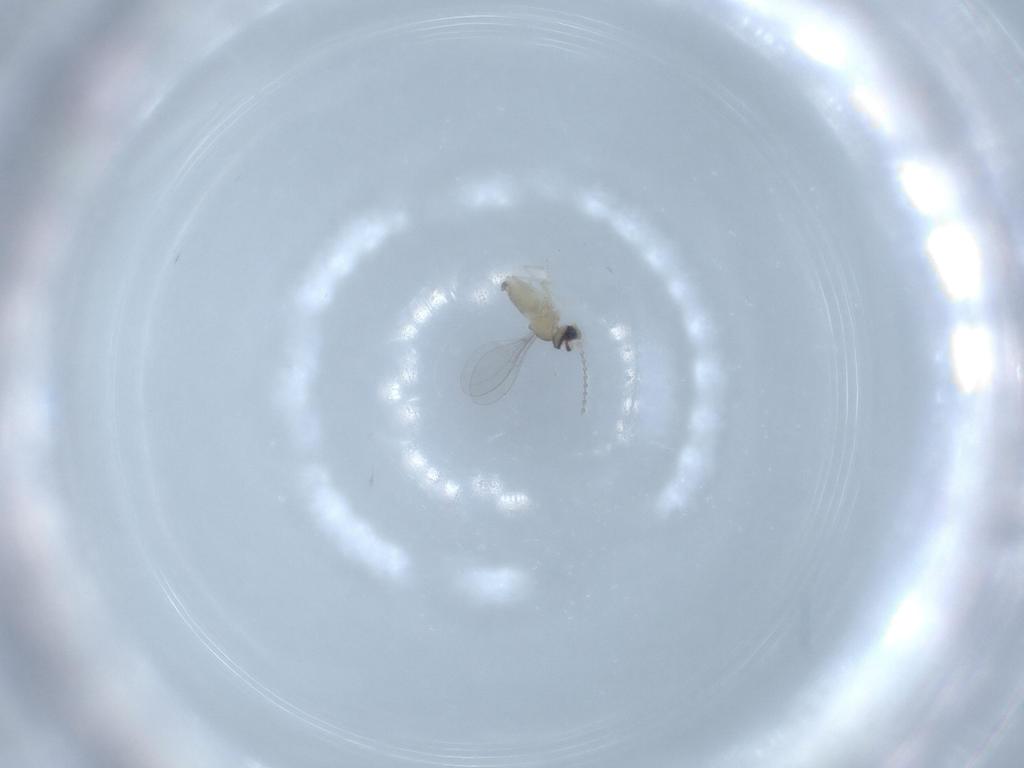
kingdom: Animalia
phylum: Arthropoda
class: Insecta
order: Diptera
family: Cecidomyiidae
